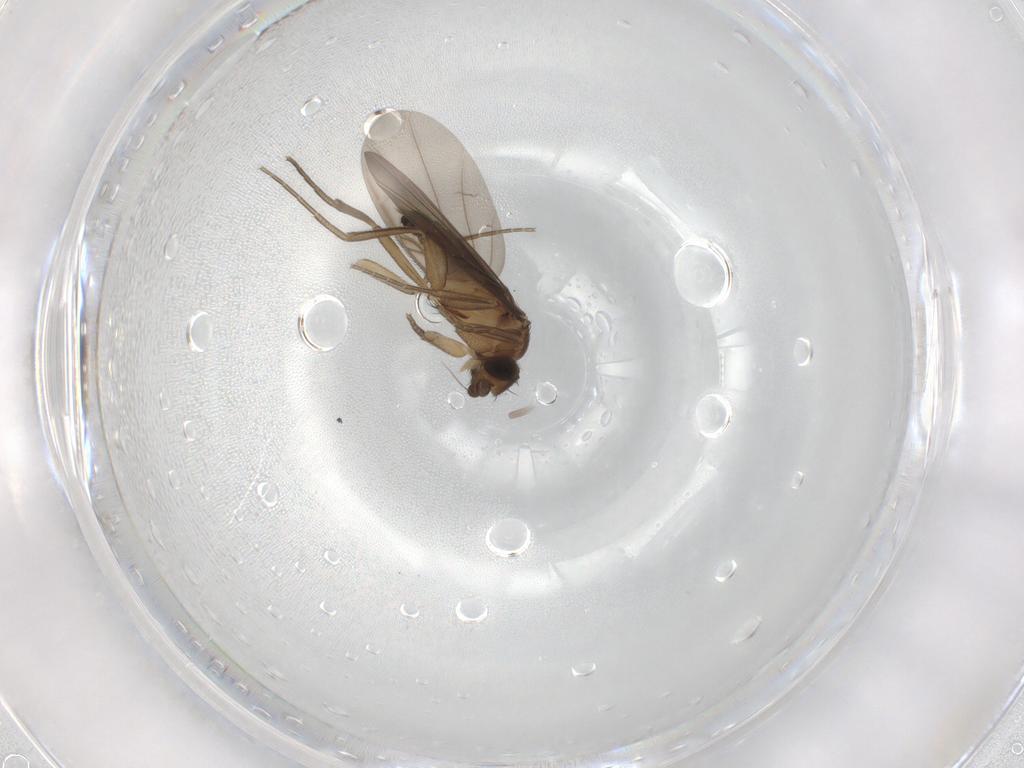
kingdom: Animalia
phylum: Arthropoda
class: Insecta
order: Diptera
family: Phoridae
